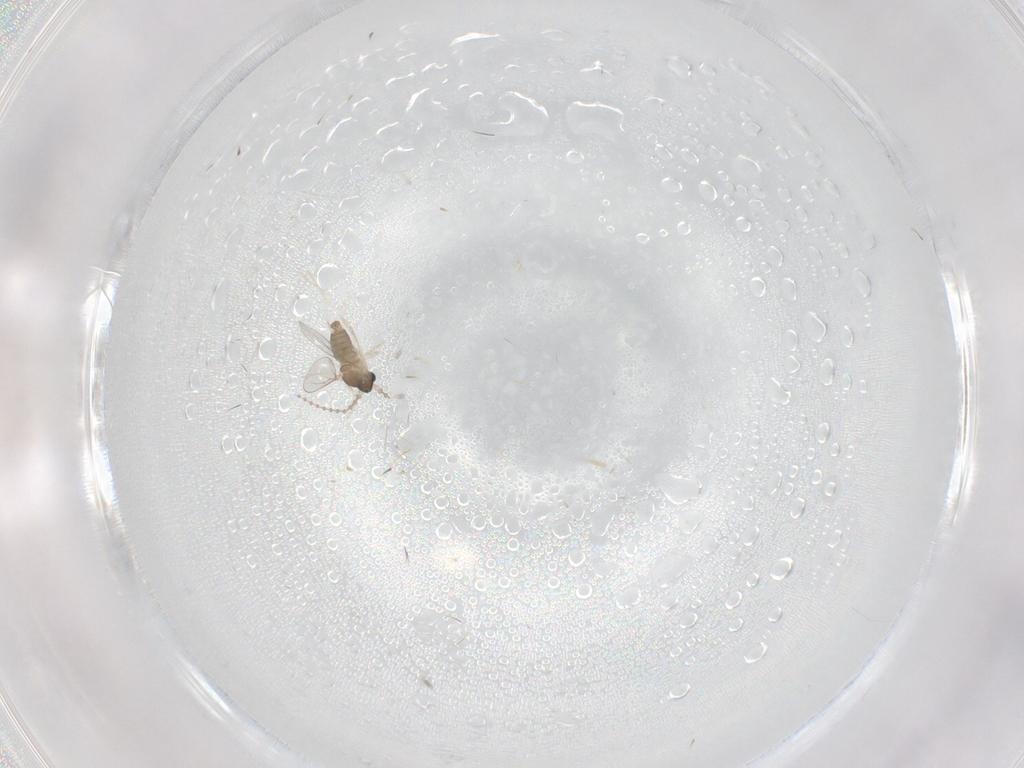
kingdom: Animalia
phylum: Arthropoda
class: Insecta
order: Diptera
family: Cecidomyiidae
